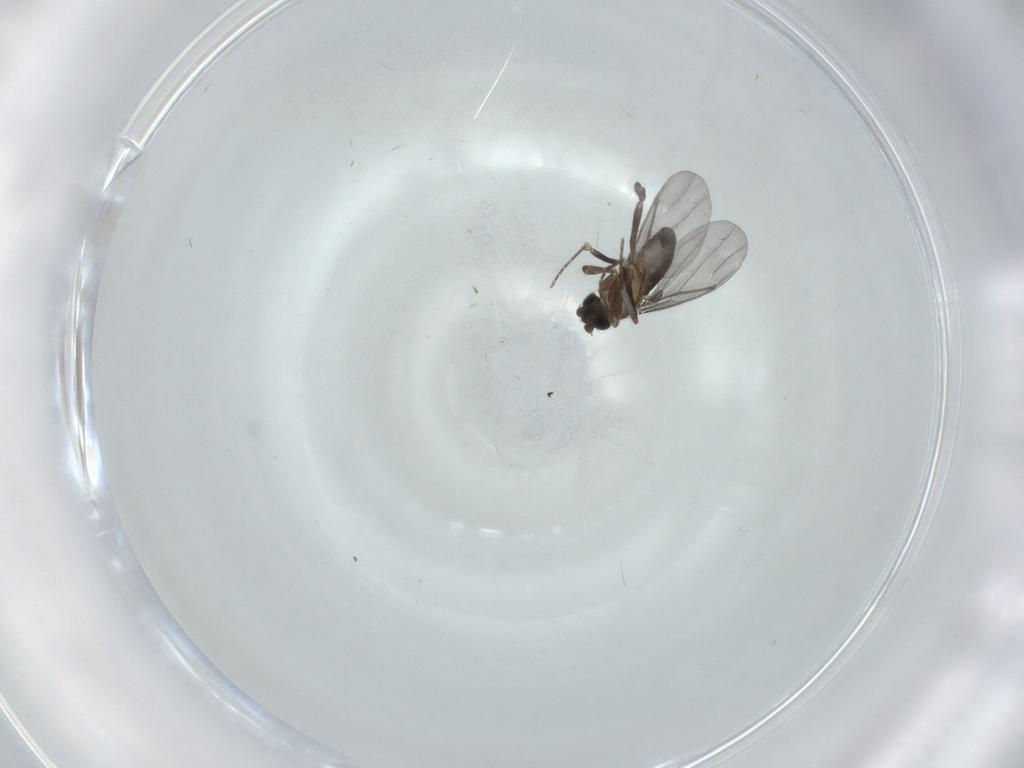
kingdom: Animalia
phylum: Arthropoda
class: Insecta
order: Diptera
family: Phoridae
